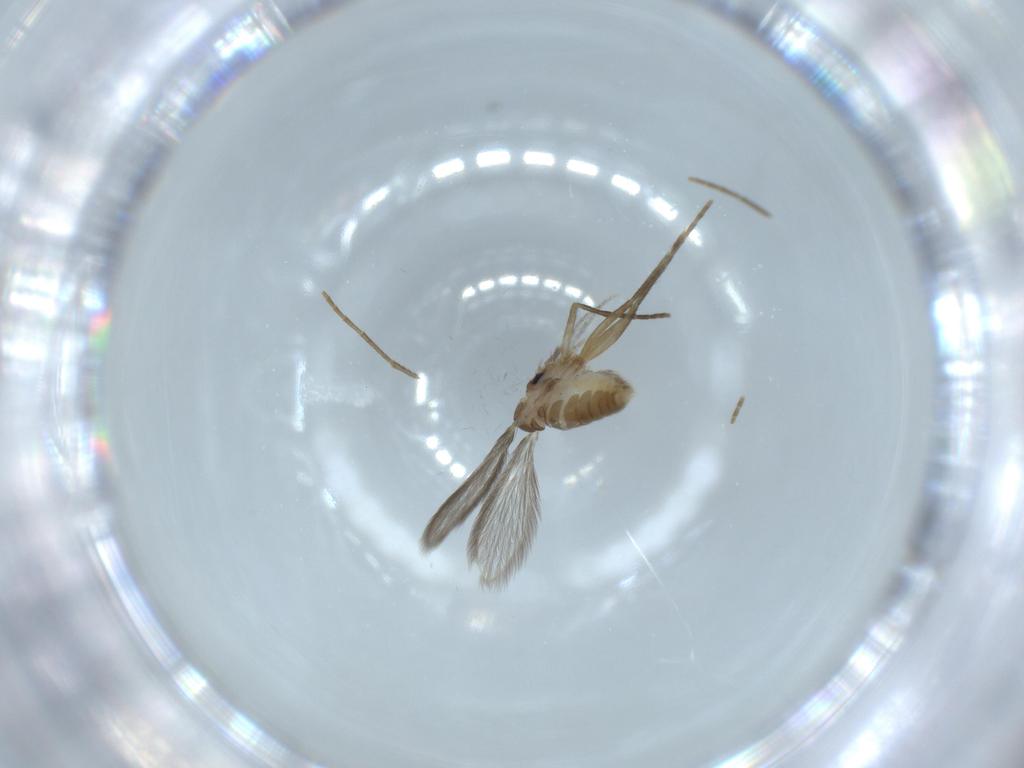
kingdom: Animalia
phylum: Arthropoda
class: Insecta
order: Diptera
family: Psychodidae
